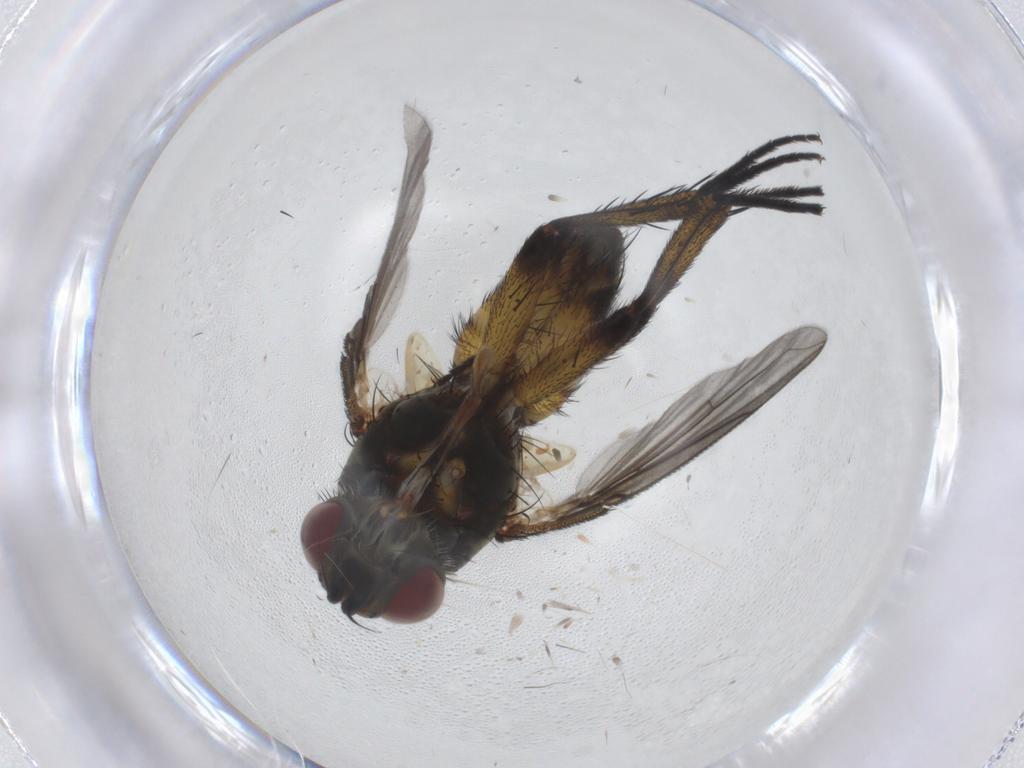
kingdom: Animalia
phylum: Arthropoda
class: Insecta
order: Diptera
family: Tachinidae
